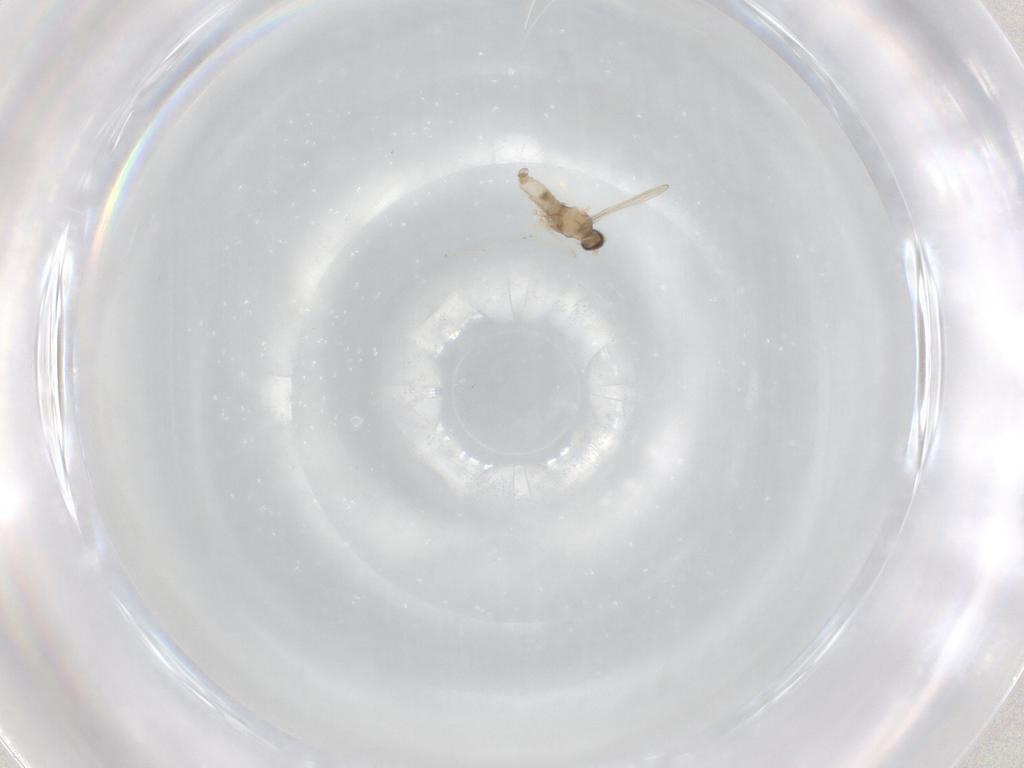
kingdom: Animalia
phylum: Arthropoda
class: Insecta
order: Diptera
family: Cecidomyiidae
